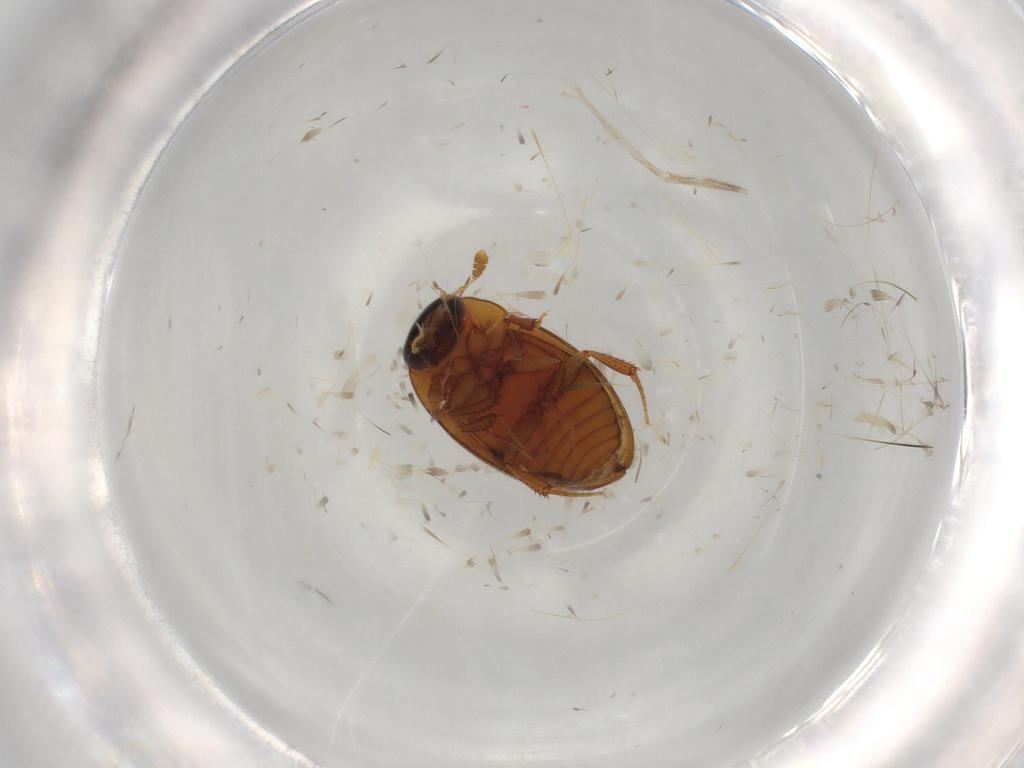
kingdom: Animalia
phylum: Arthropoda
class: Insecta
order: Coleoptera
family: Hydrophilidae
